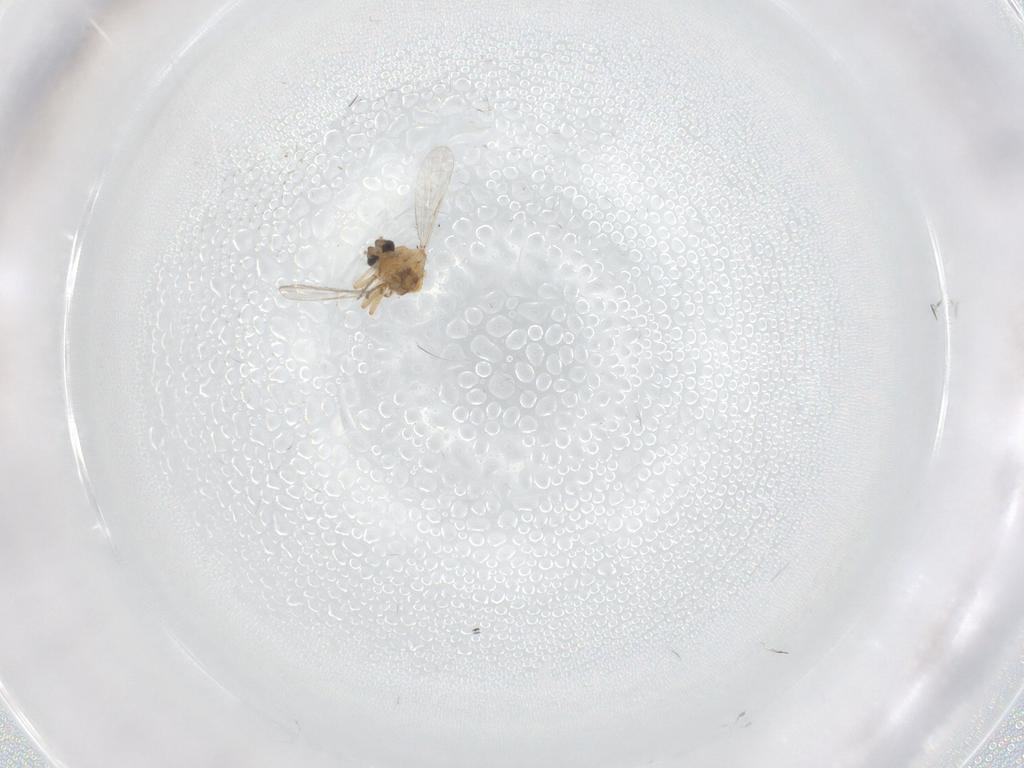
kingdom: Animalia
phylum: Arthropoda
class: Insecta
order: Diptera
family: Ceratopogonidae
